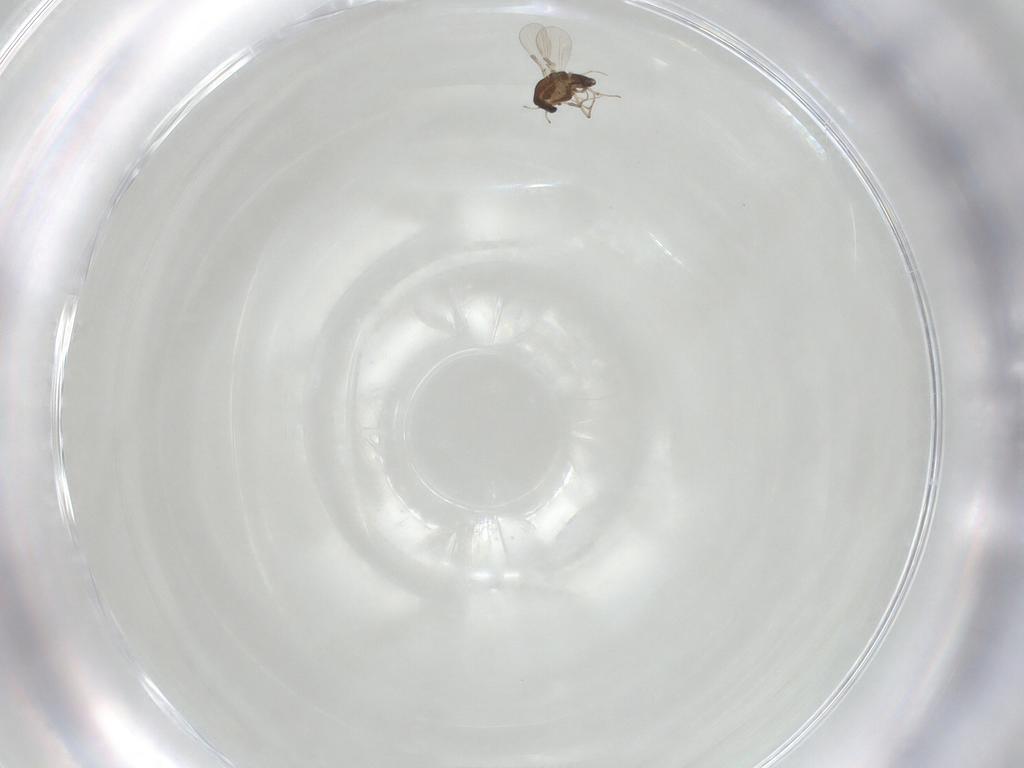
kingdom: Animalia
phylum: Arthropoda
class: Insecta
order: Diptera
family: Chironomidae
